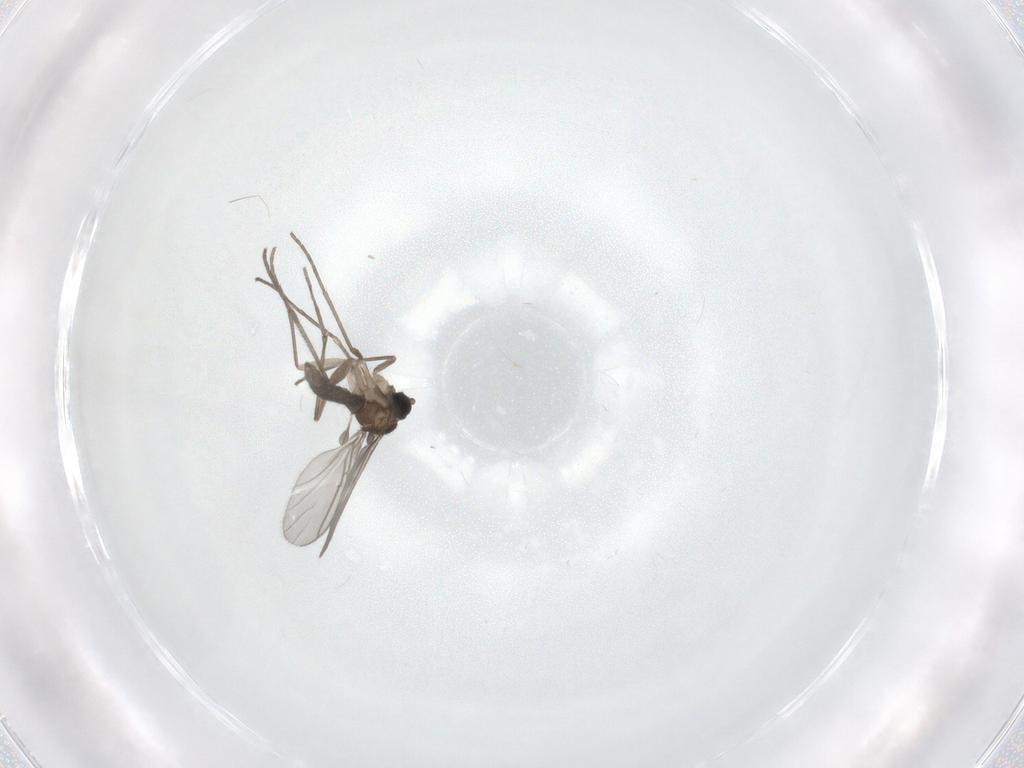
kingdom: Animalia
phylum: Arthropoda
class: Insecta
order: Diptera
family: Sciaridae
